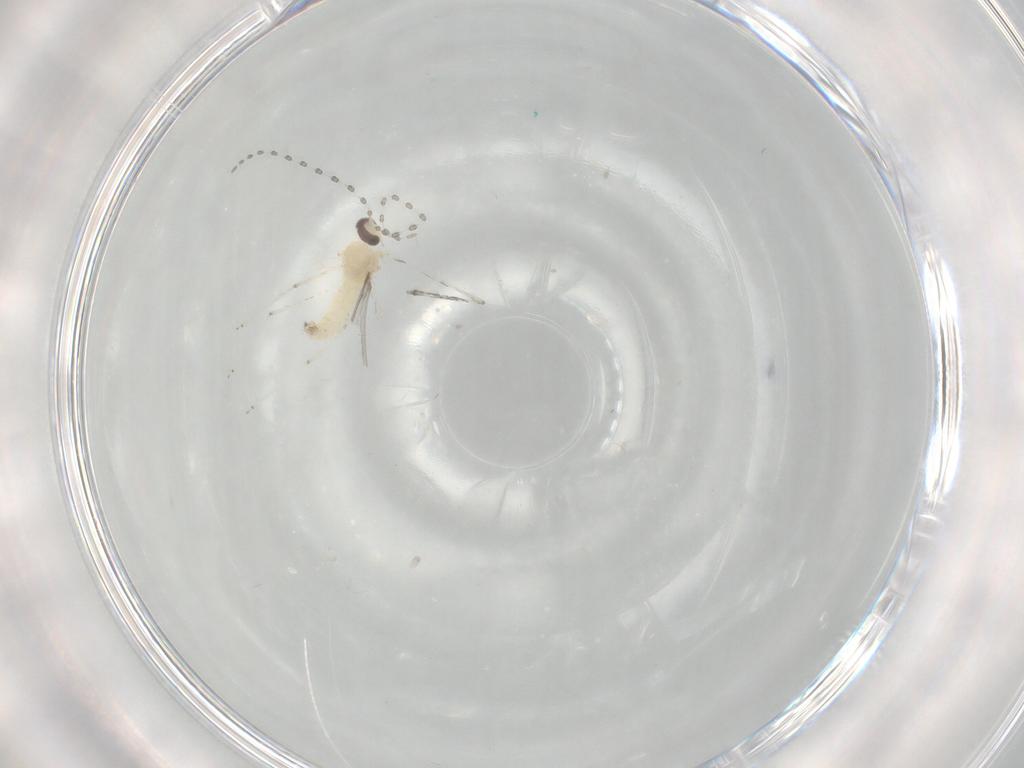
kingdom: Animalia
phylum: Arthropoda
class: Insecta
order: Diptera
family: Cecidomyiidae
